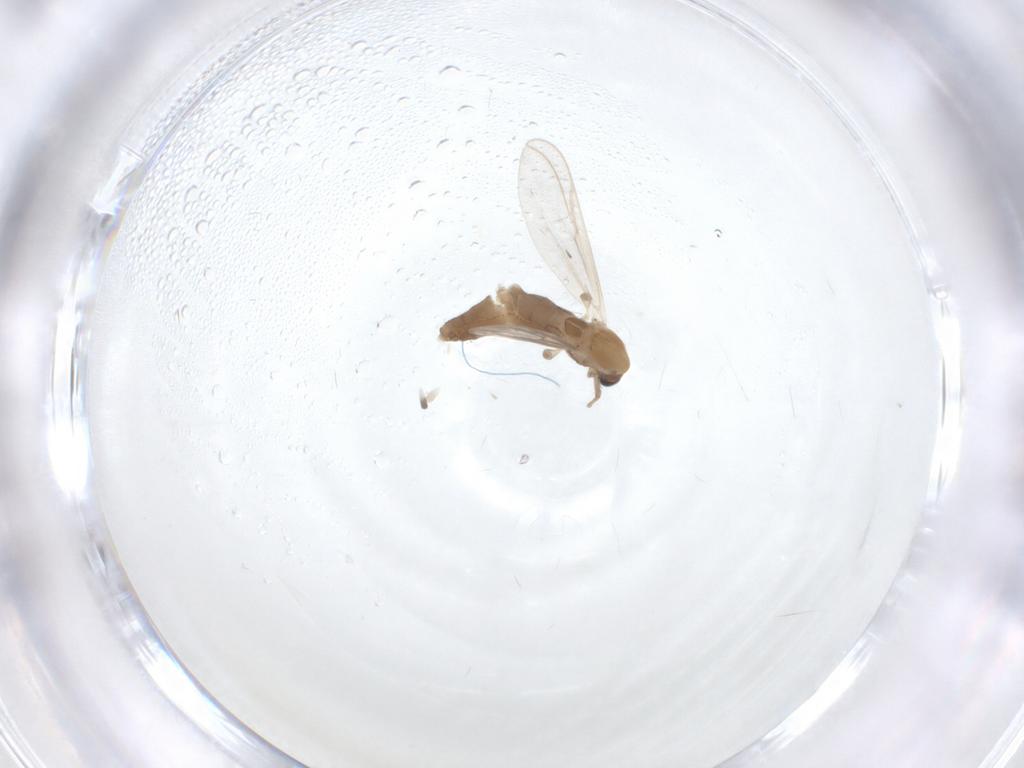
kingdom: Animalia
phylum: Arthropoda
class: Insecta
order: Diptera
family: Chironomidae
